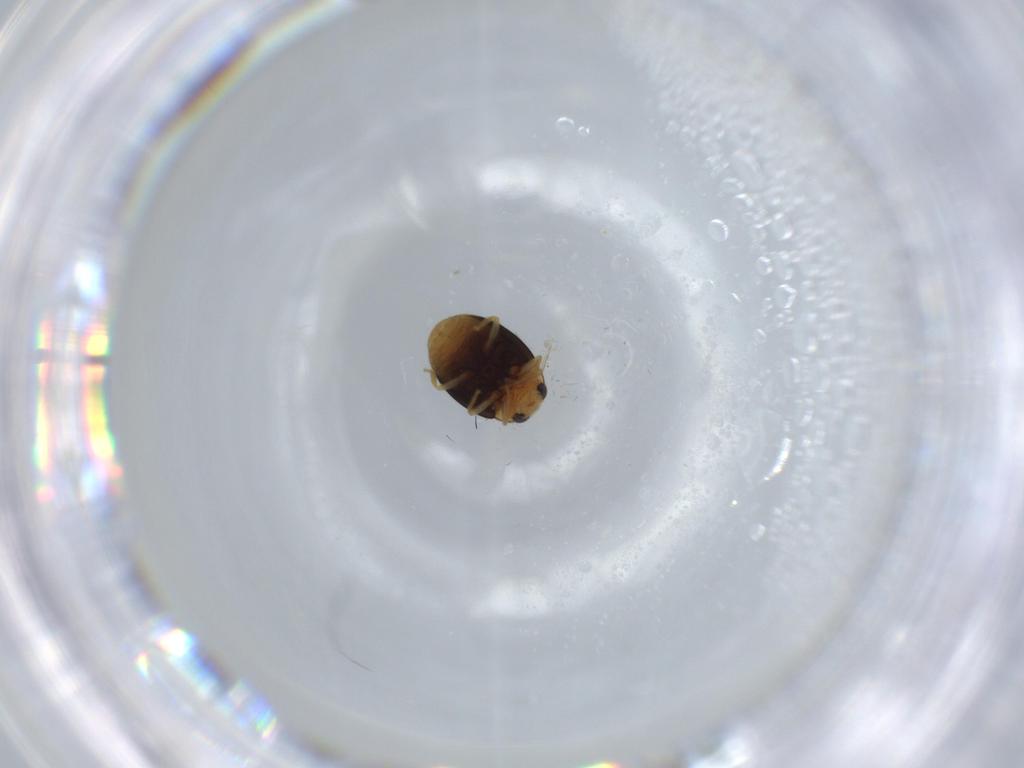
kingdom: Animalia
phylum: Arthropoda
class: Insecta
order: Coleoptera
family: Coccinellidae
